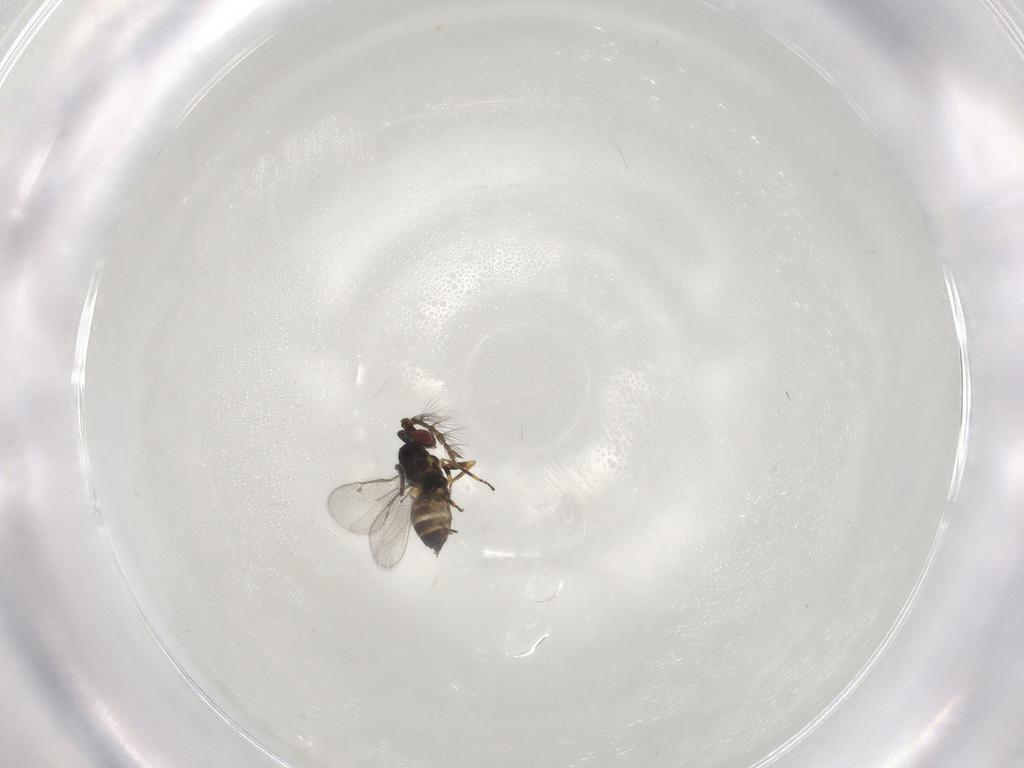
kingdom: Animalia
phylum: Arthropoda
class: Insecta
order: Hymenoptera
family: Eulophidae
